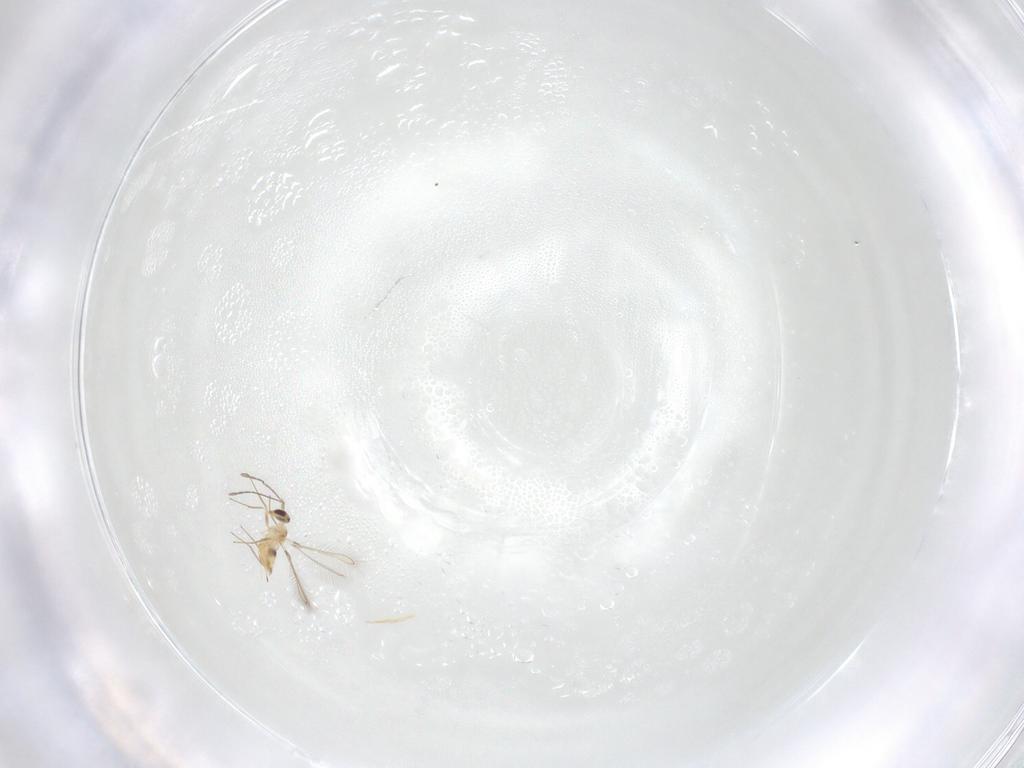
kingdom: Animalia
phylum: Arthropoda
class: Insecta
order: Hymenoptera
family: Mymaridae
